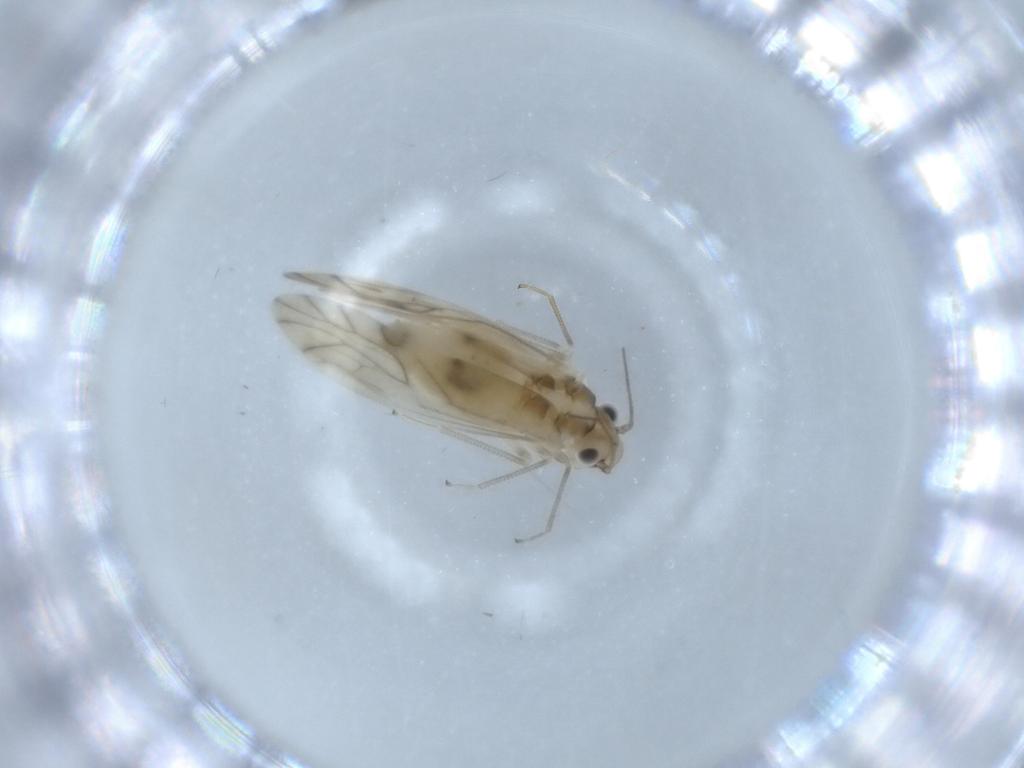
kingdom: Animalia
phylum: Arthropoda
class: Insecta
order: Psocodea
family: Caeciliusidae
